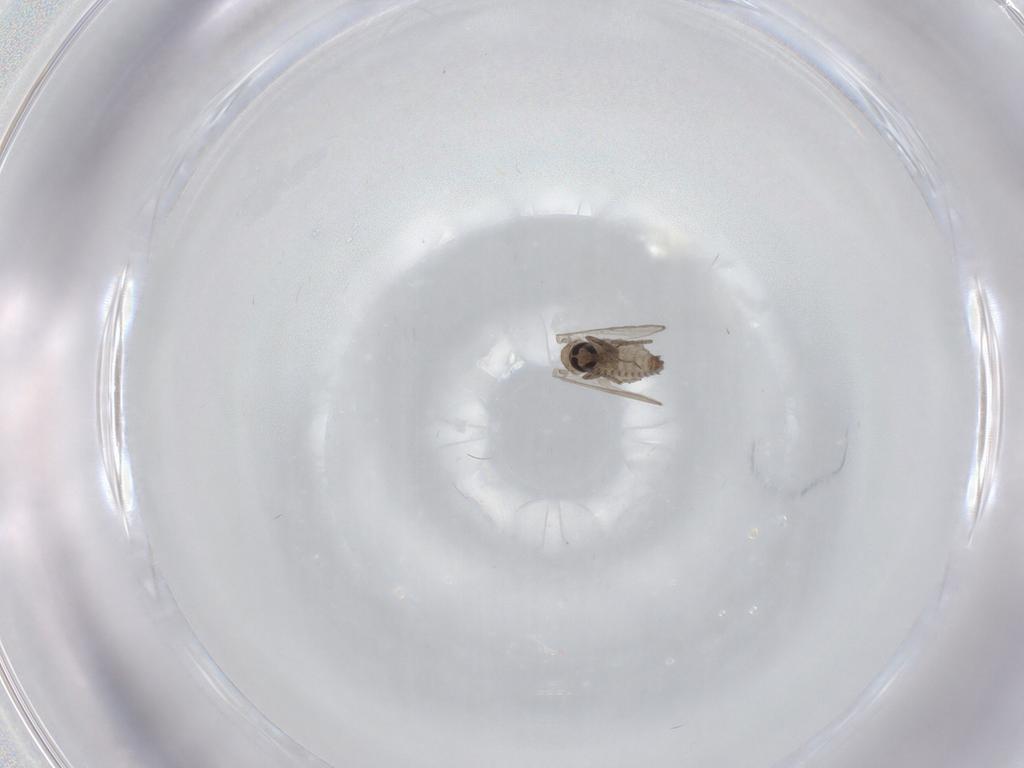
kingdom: Animalia
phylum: Arthropoda
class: Insecta
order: Diptera
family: Psychodidae
